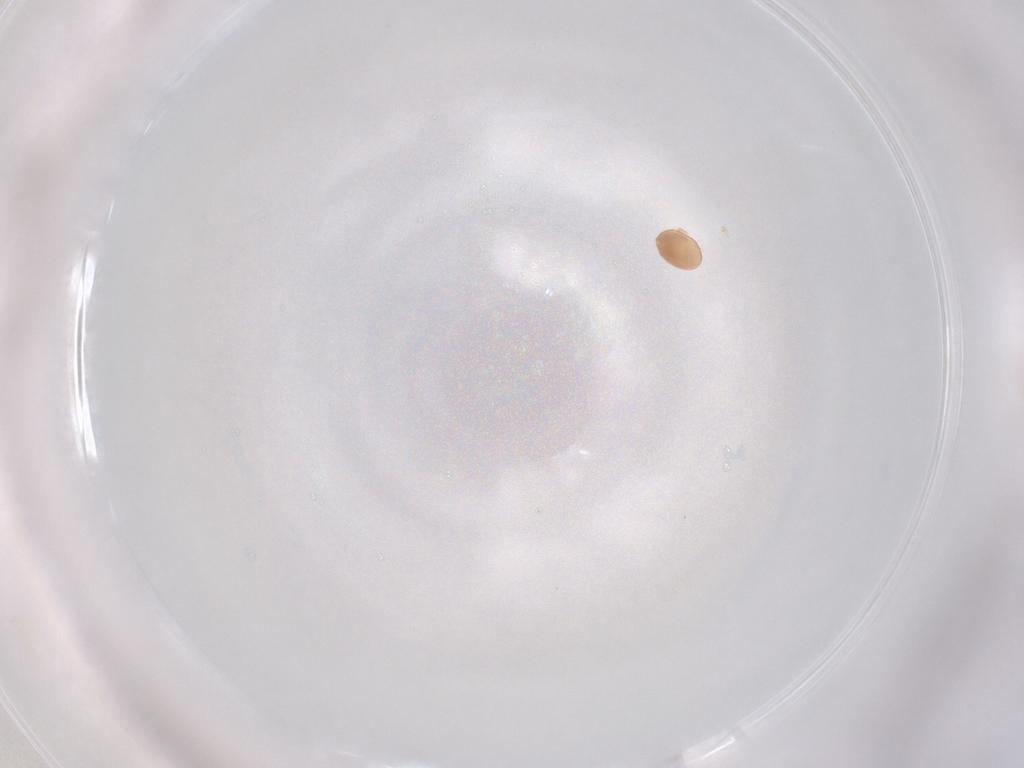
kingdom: Animalia
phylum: Arthropoda
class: Arachnida
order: Mesostigmata
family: Trematuridae
